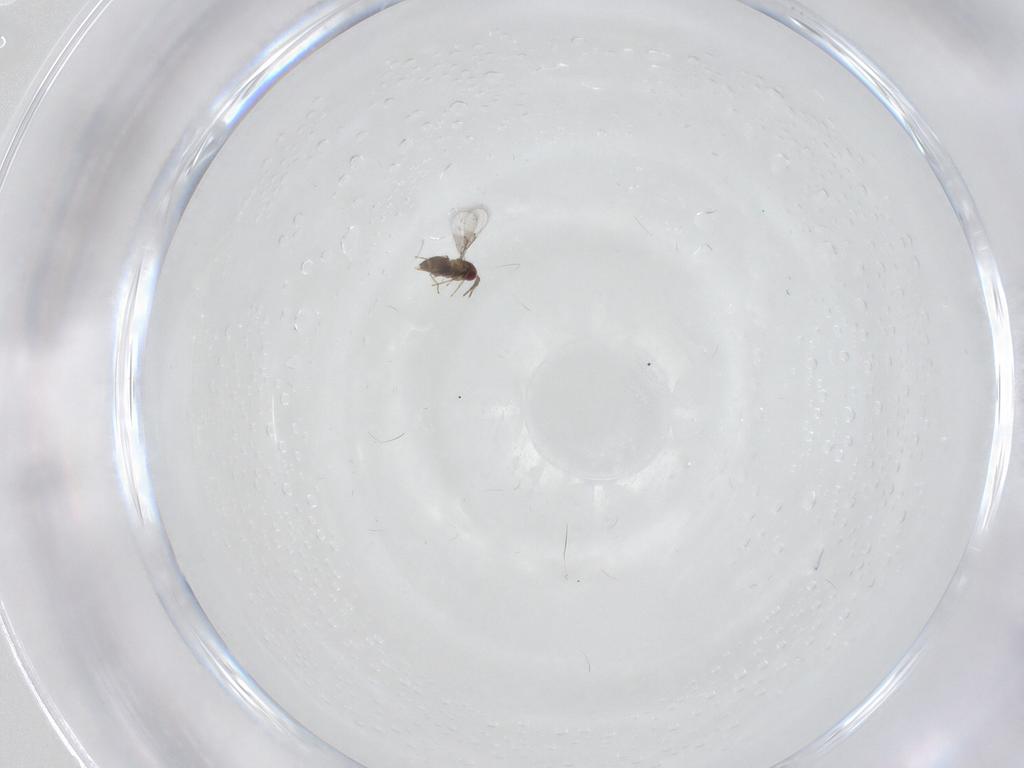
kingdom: Animalia
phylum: Arthropoda
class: Insecta
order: Hymenoptera
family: Trichogrammatidae
